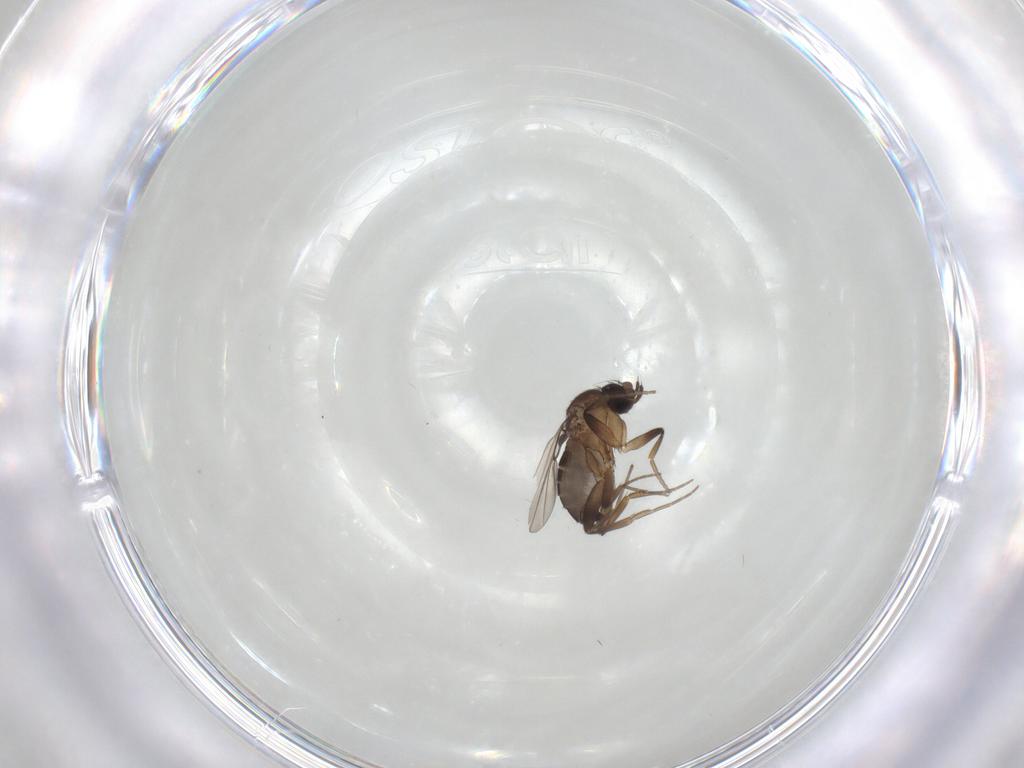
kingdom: Animalia
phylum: Arthropoda
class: Insecta
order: Diptera
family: Phoridae
